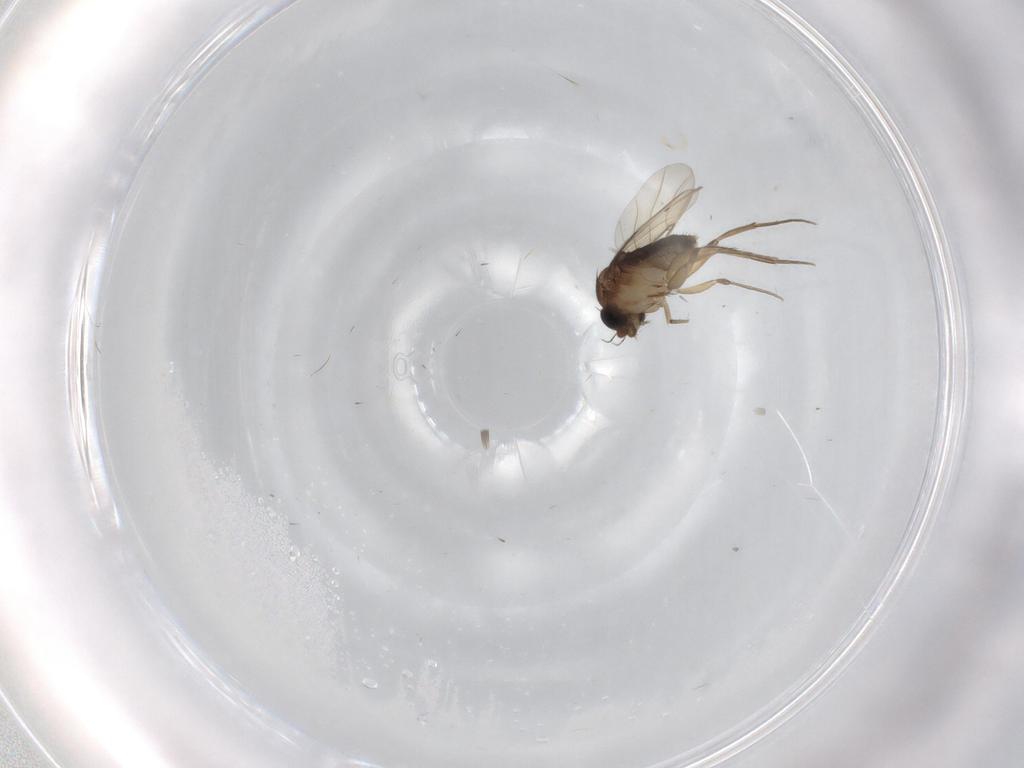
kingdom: Animalia
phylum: Arthropoda
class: Insecta
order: Diptera
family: Phoridae
